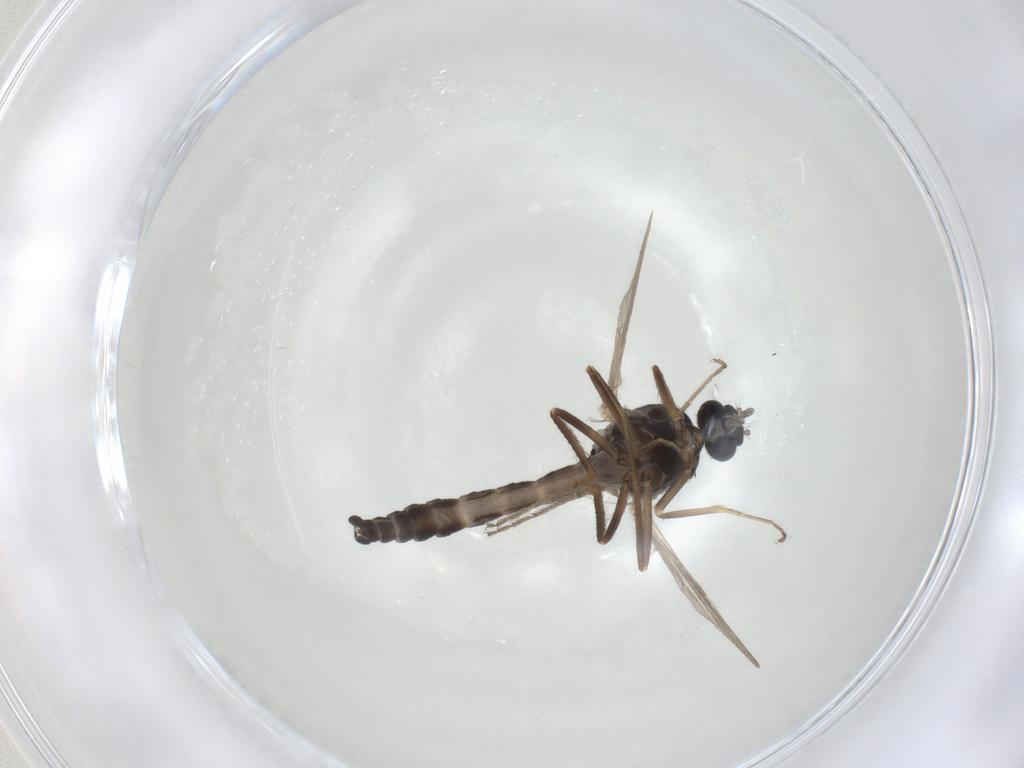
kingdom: Animalia
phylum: Arthropoda
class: Insecta
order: Diptera
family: Ceratopogonidae
